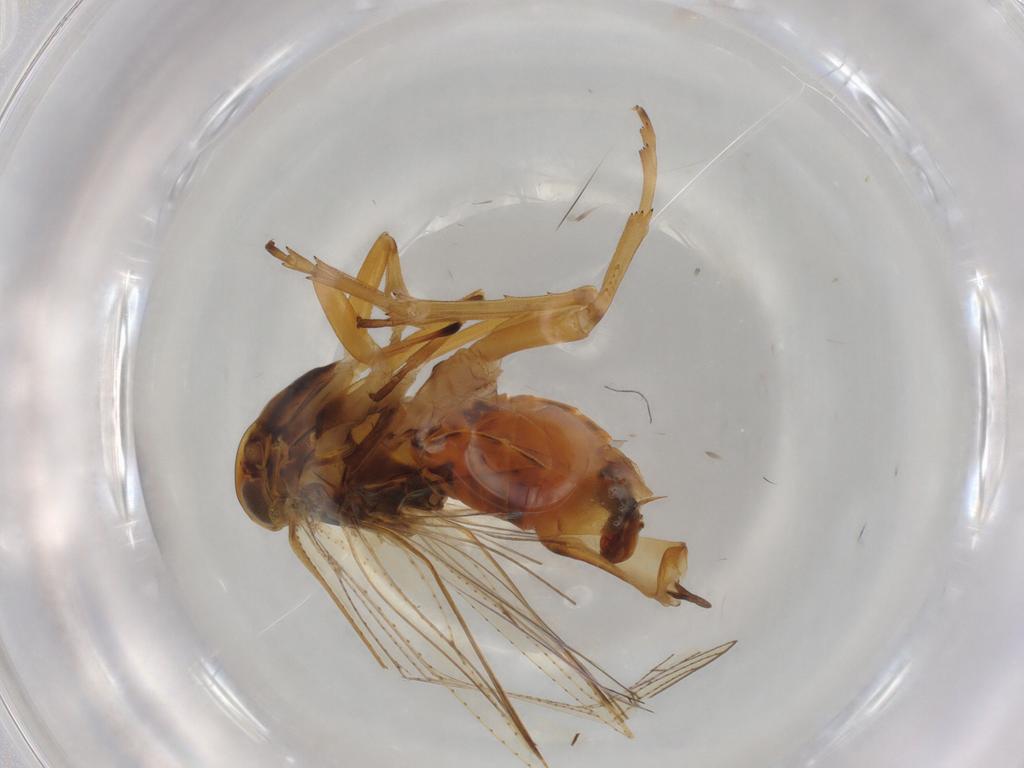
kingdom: Animalia
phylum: Arthropoda
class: Insecta
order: Hemiptera
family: Cixiidae
